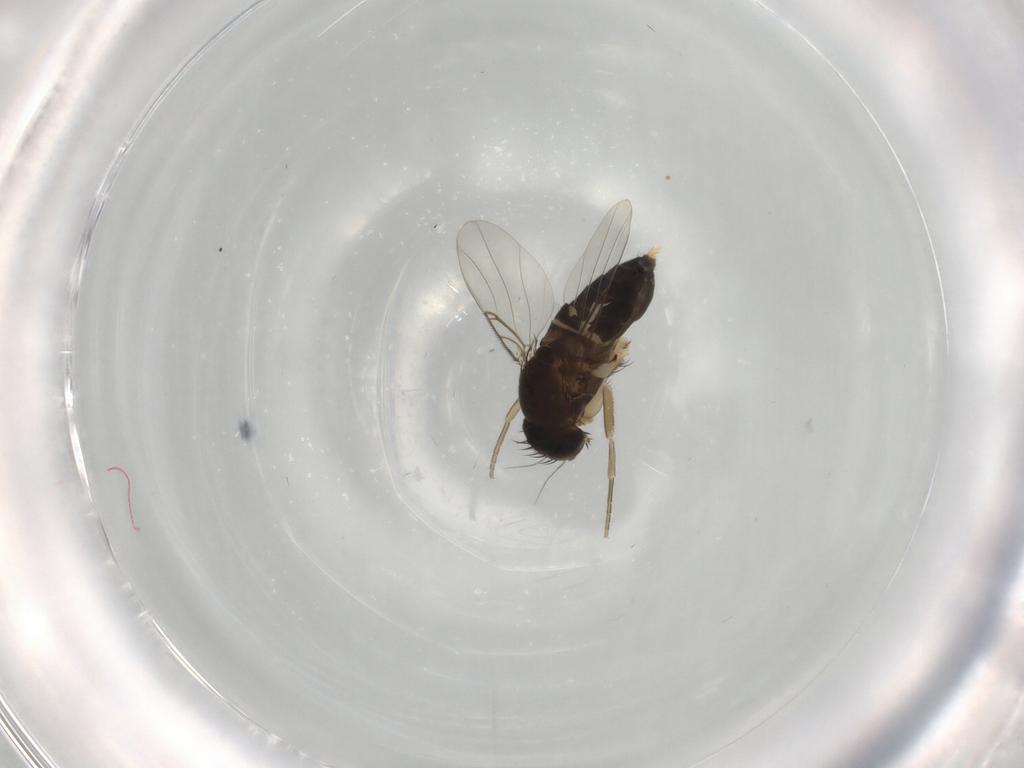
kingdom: Animalia
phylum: Arthropoda
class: Insecta
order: Diptera
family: Phoridae
